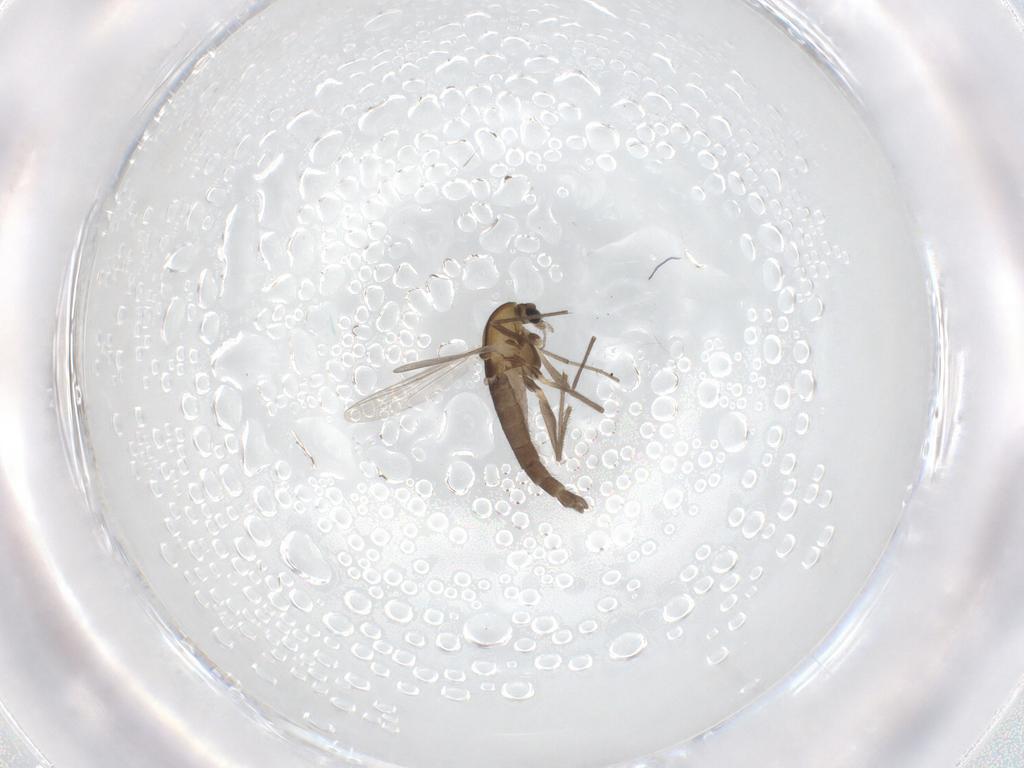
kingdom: Animalia
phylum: Arthropoda
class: Insecta
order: Diptera
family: Chironomidae
